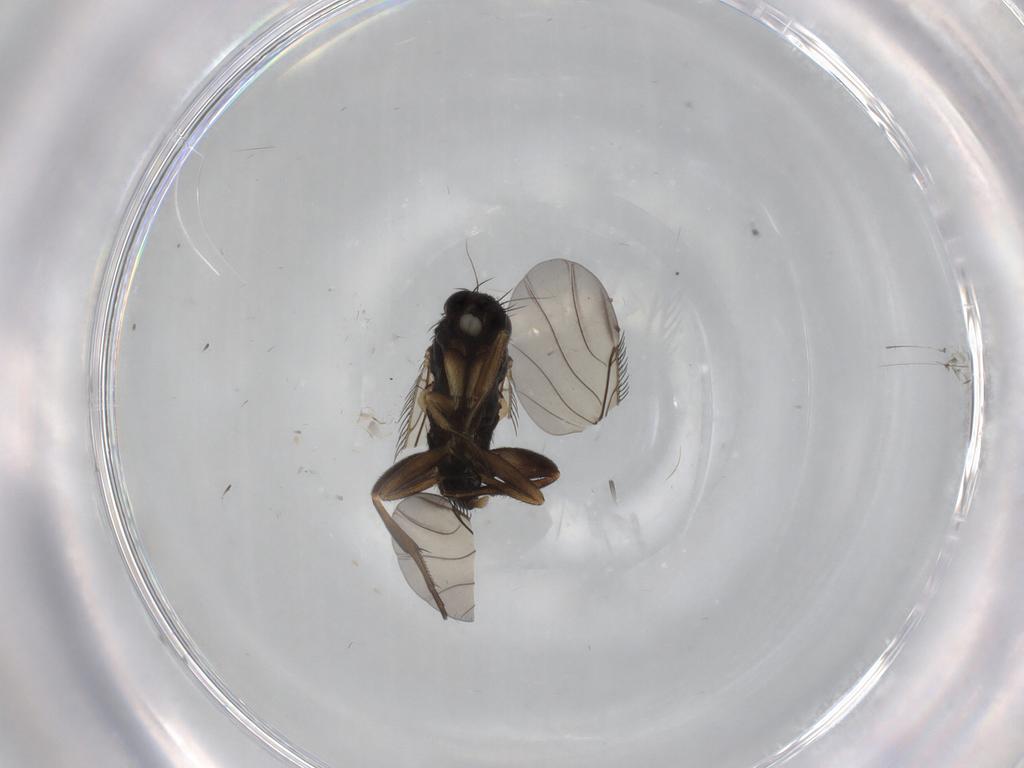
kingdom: Animalia
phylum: Arthropoda
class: Insecta
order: Diptera
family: Phoridae
